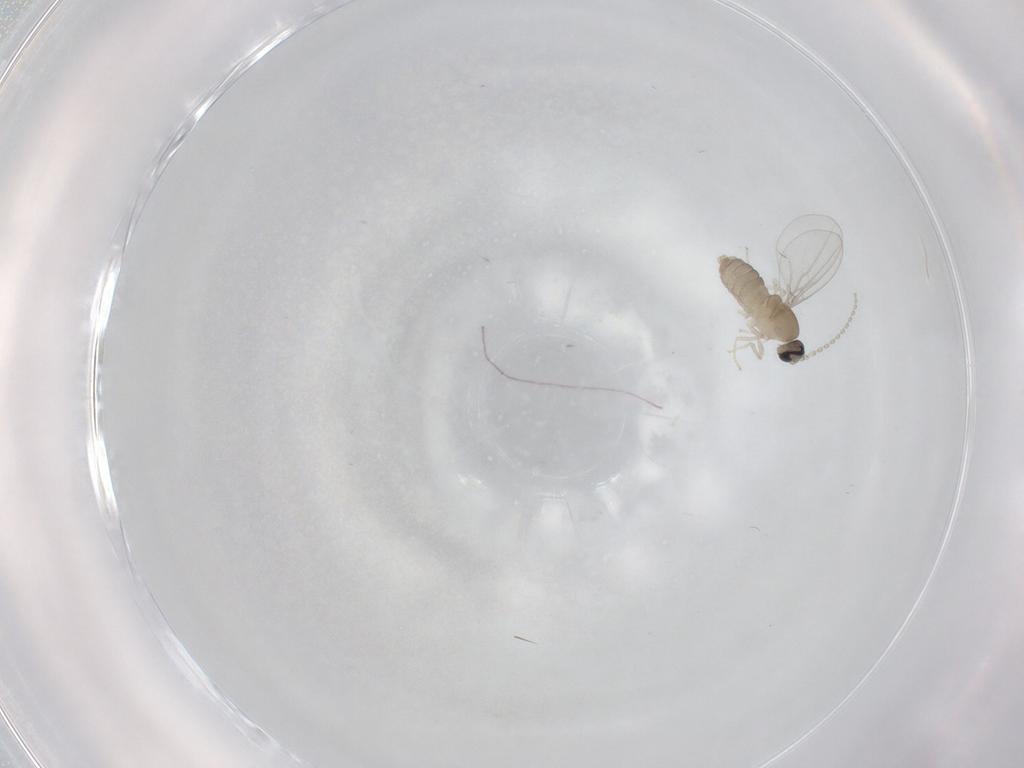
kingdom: Animalia
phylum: Arthropoda
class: Insecta
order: Diptera
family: Cecidomyiidae
